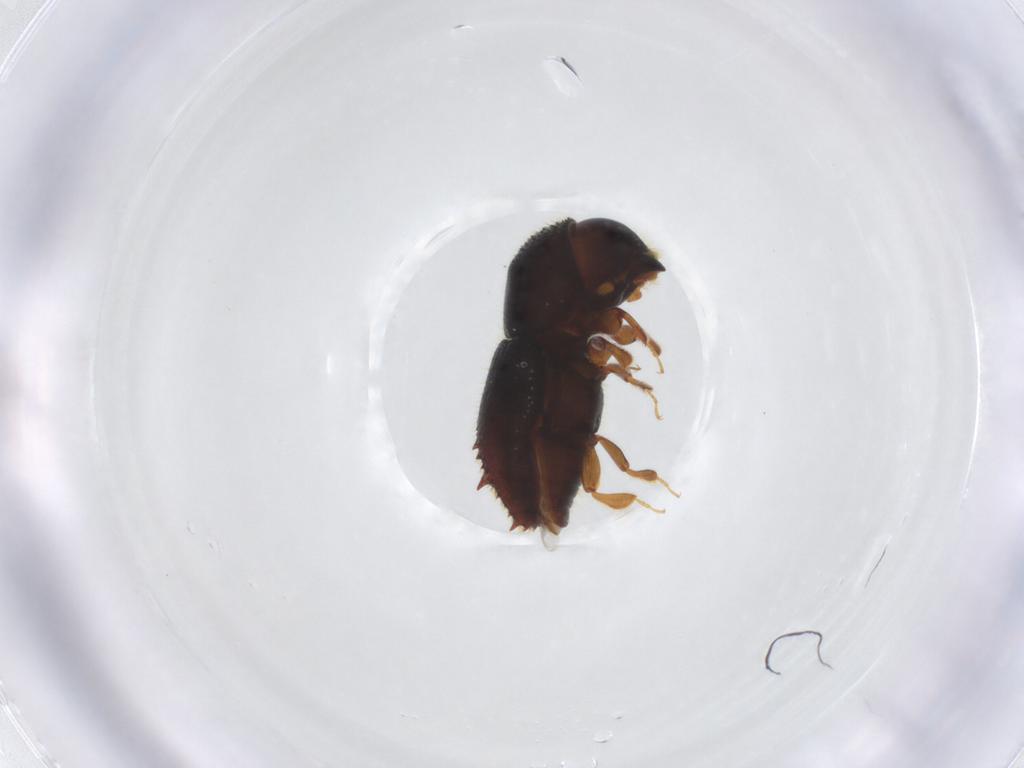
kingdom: Animalia
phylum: Arthropoda
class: Insecta
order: Coleoptera
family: Curculionidae
